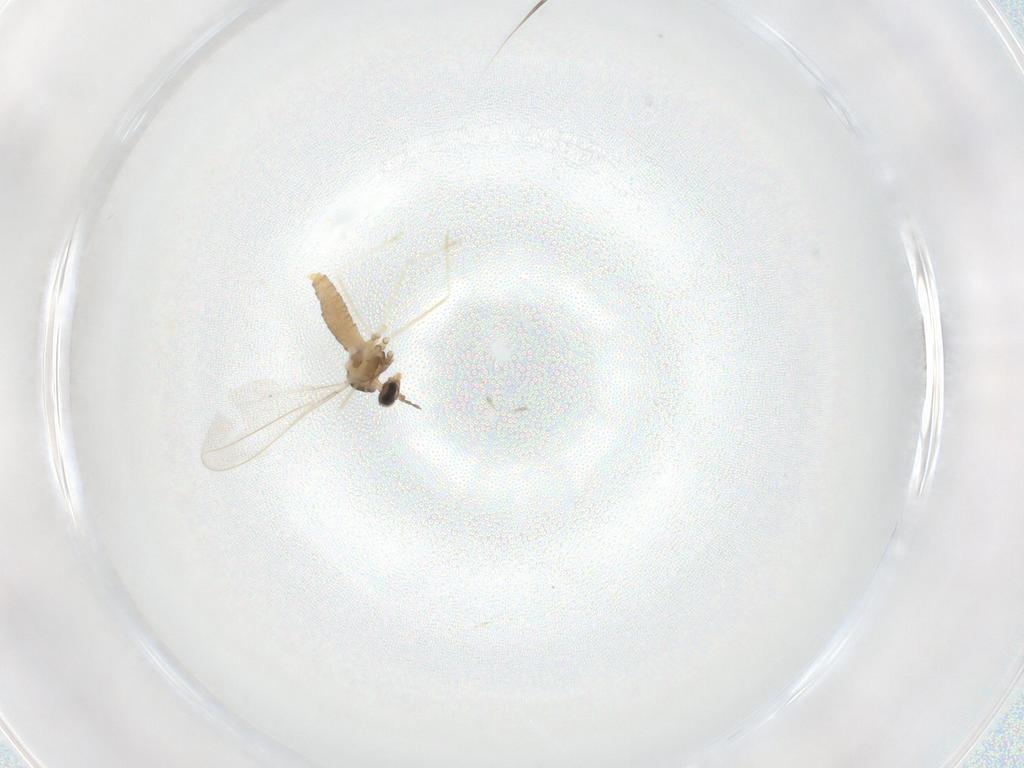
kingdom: Animalia
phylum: Arthropoda
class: Insecta
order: Diptera
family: Cecidomyiidae
